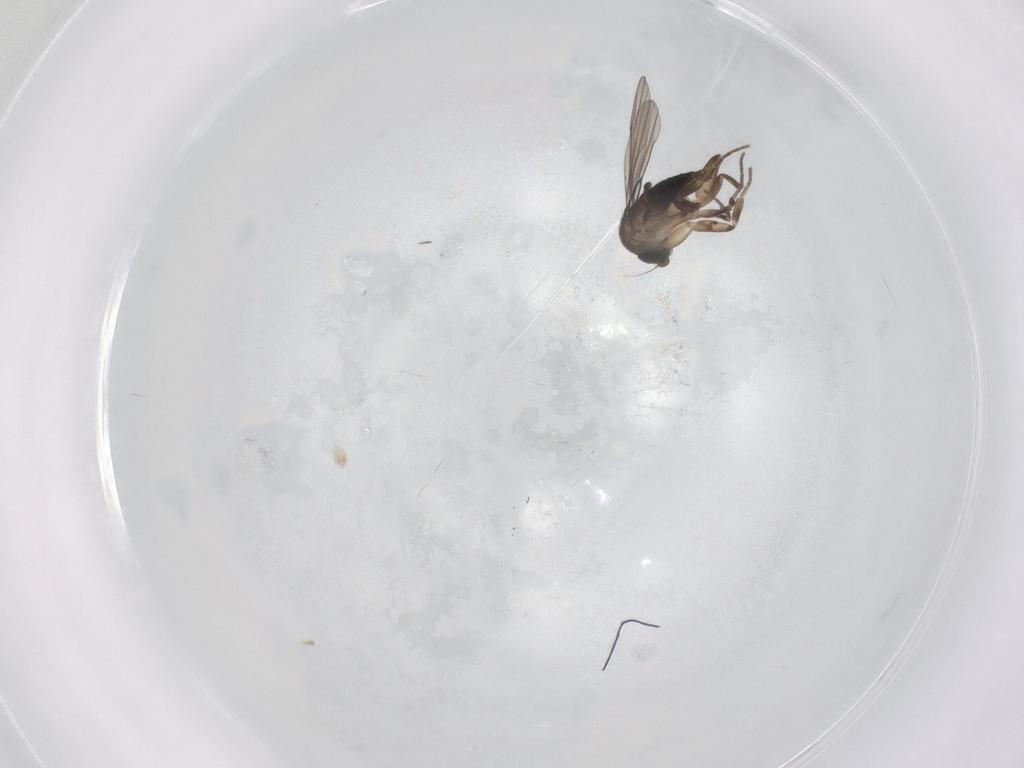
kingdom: Animalia
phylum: Arthropoda
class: Insecta
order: Diptera
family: Phoridae
